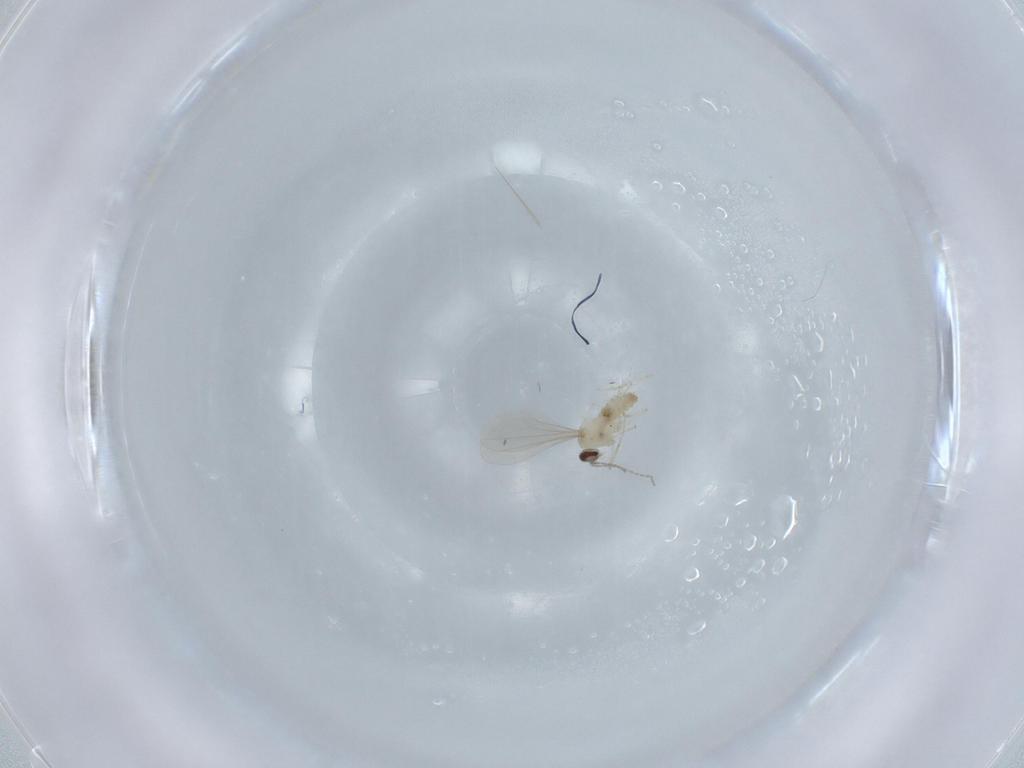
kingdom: Animalia
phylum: Arthropoda
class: Insecta
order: Diptera
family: Cecidomyiidae
